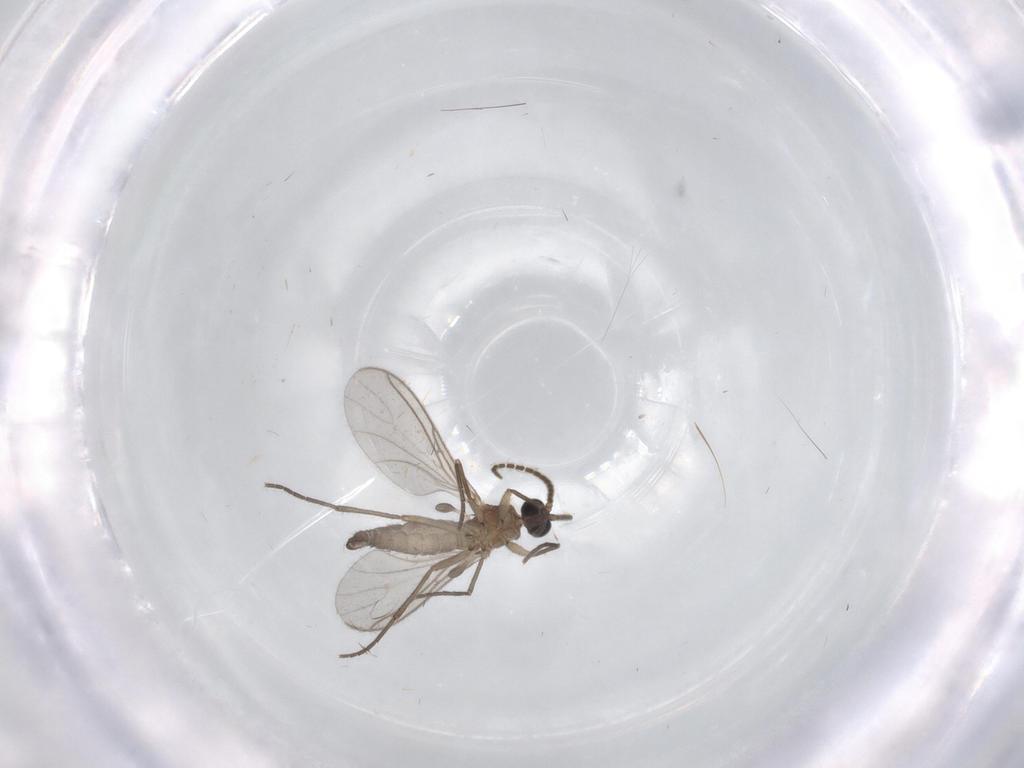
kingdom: Animalia
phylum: Arthropoda
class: Insecta
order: Diptera
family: Cecidomyiidae
